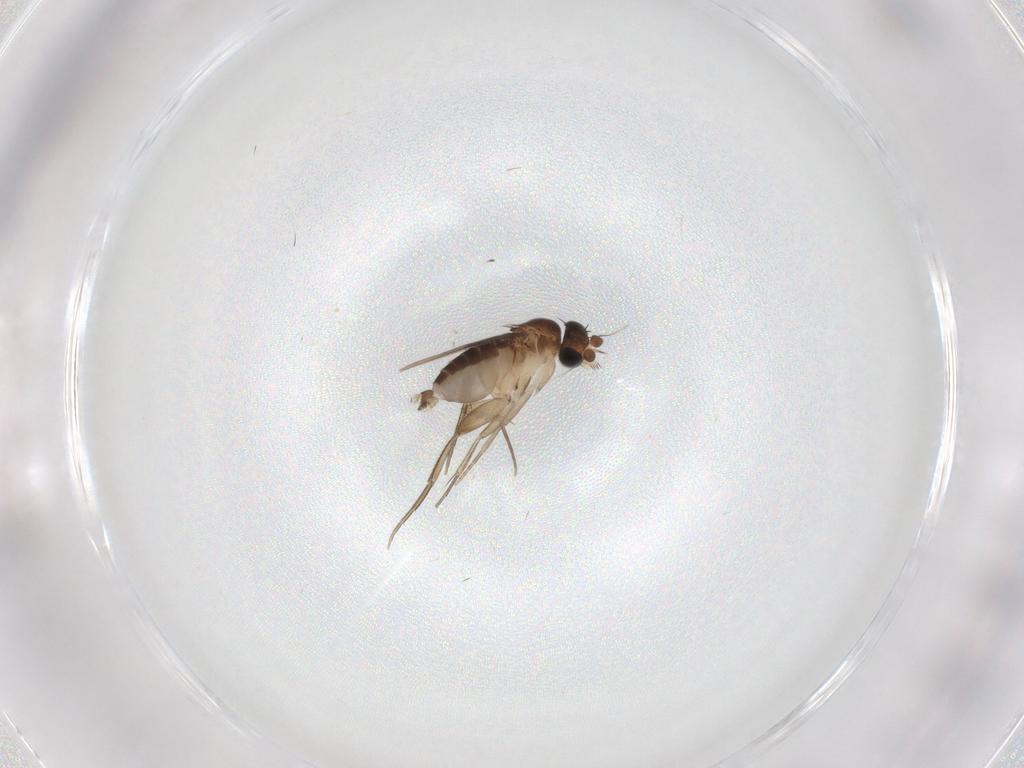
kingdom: Animalia
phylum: Arthropoda
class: Insecta
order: Diptera
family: Phoridae
